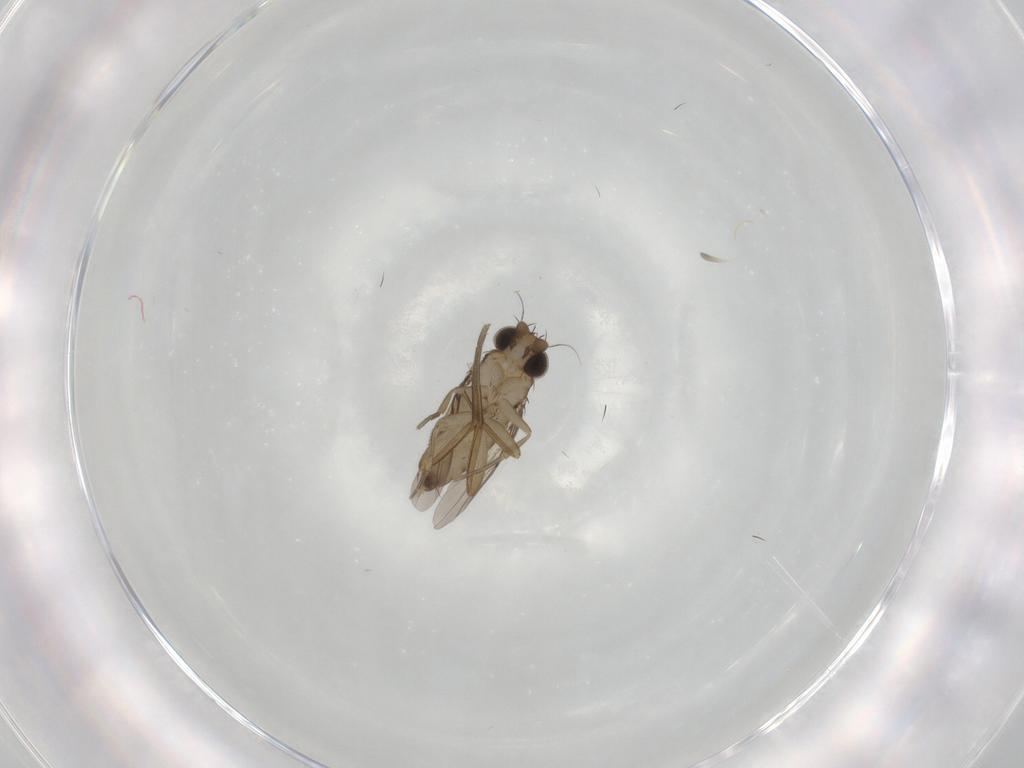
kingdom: Animalia
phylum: Arthropoda
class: Insecta
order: Diptera
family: Phoridae
